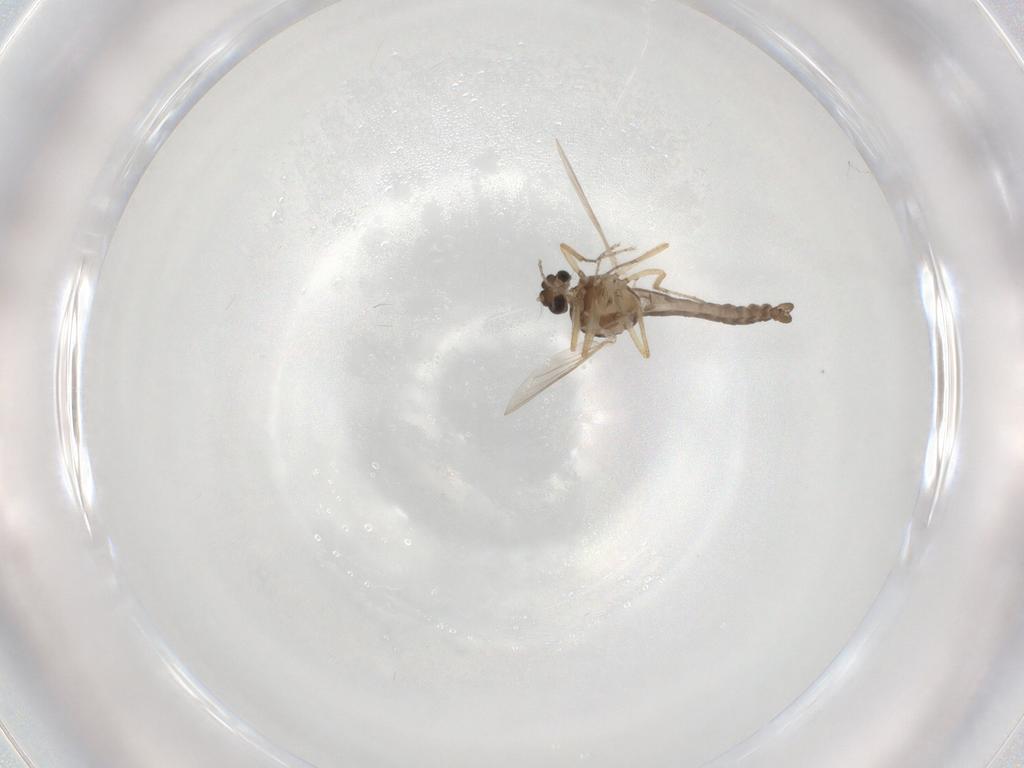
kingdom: Animalia
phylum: Arthropoda
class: Insecta
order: Diptera
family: Ceratopogonidae
